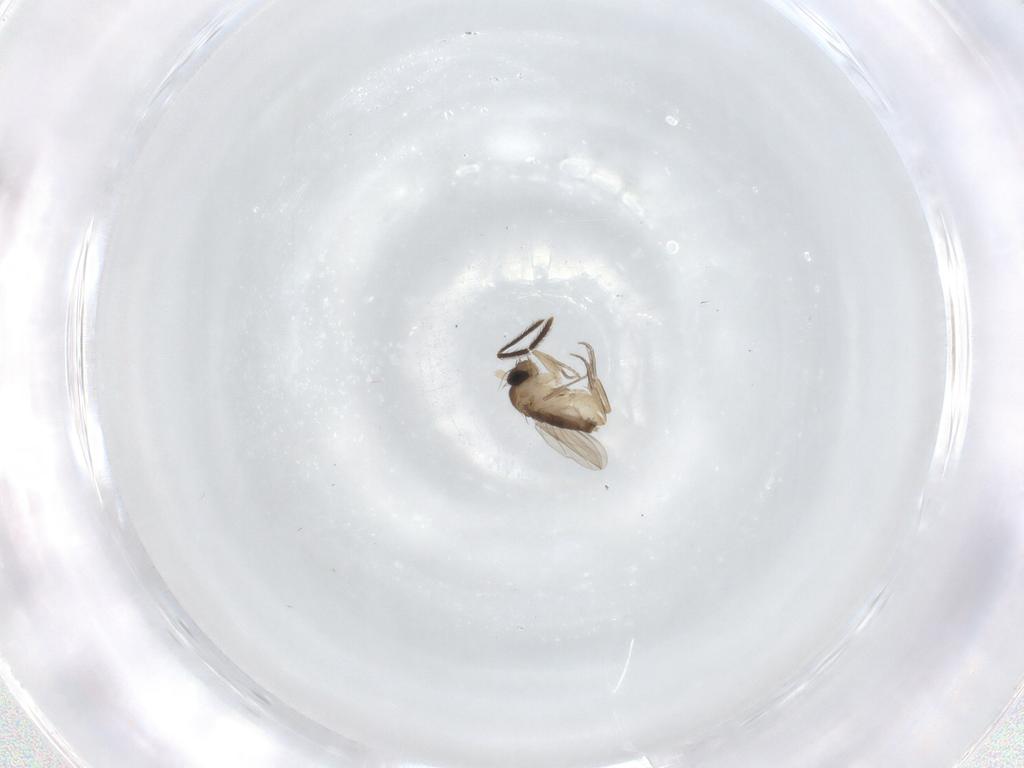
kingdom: Animalia
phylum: Arthropoda
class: Insecta
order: Diptera
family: Phoridae
